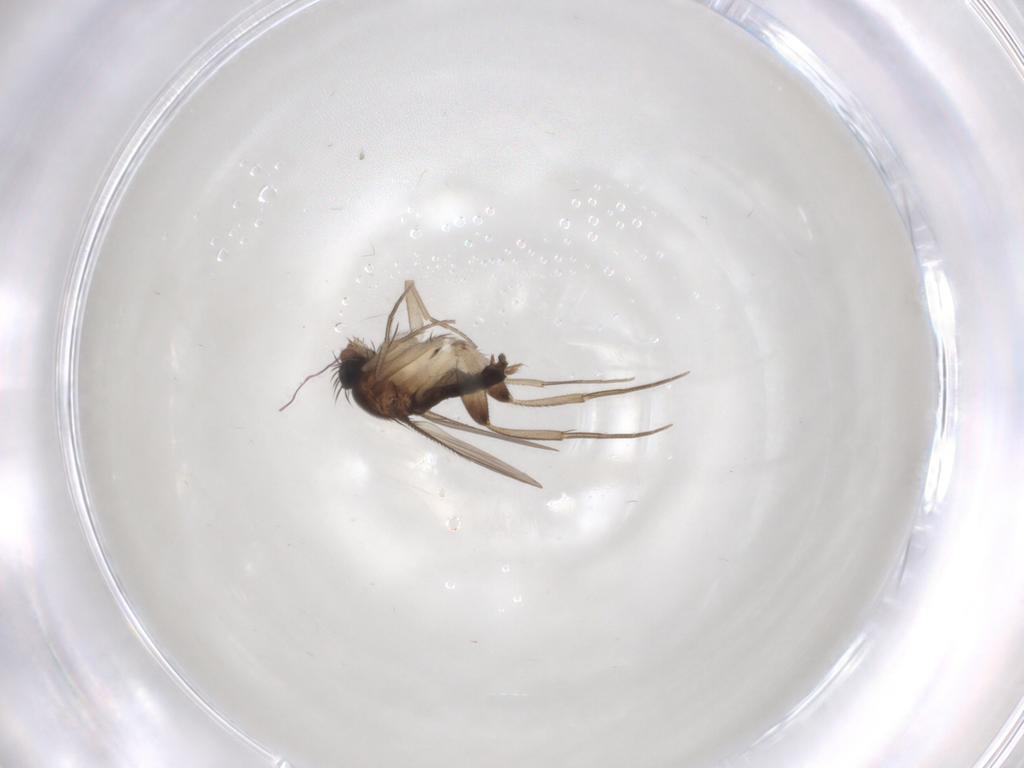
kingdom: Animalia
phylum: Arthropoda
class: Insecta
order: Diptera
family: Phoridae
